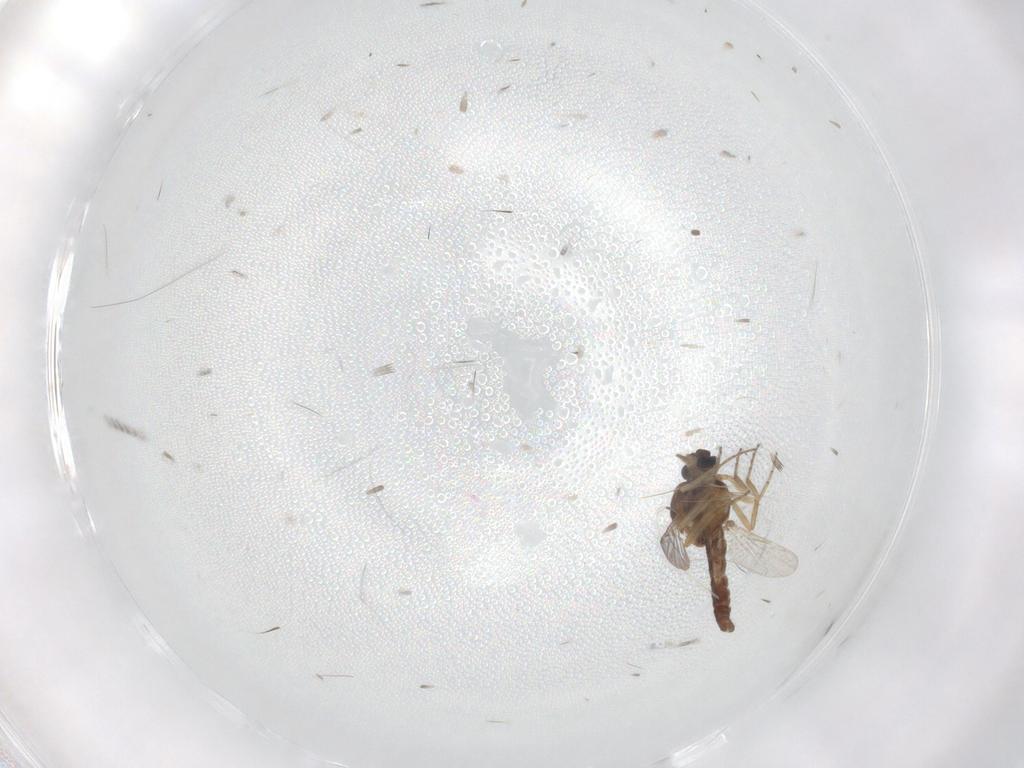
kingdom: Animalia
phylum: Arthropoda
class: Insecta
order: Diptera
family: Ceratopogonidae
